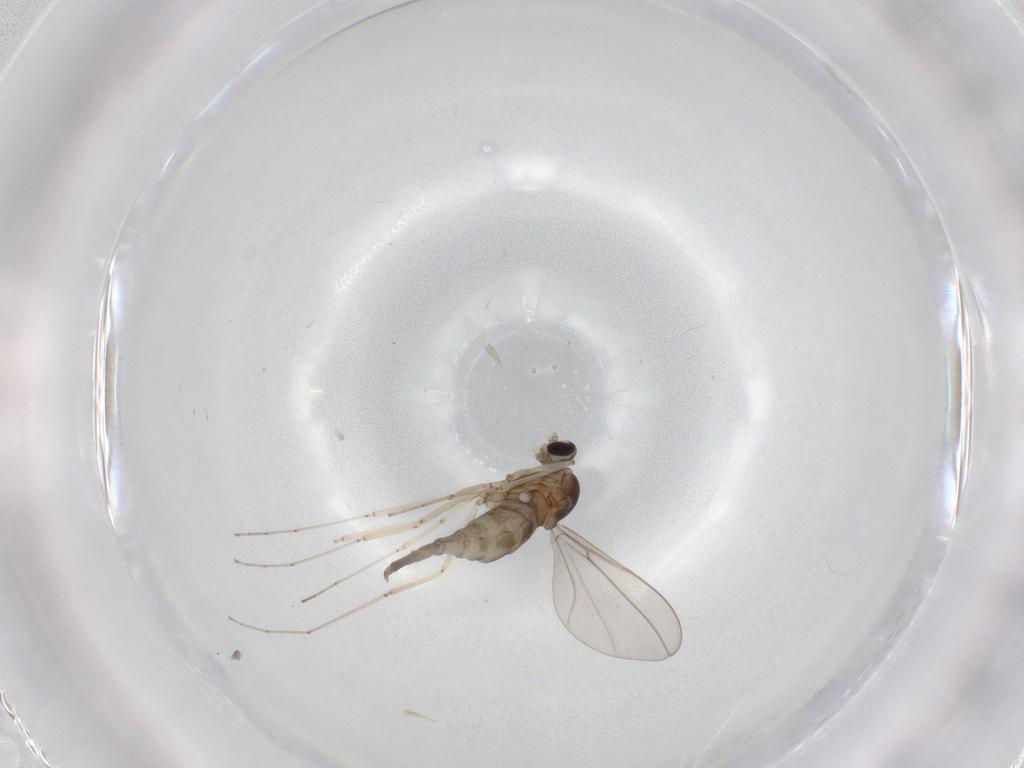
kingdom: Animalia
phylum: Arthropoda
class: Insecta
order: Diptera
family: Cecidomyiidae
